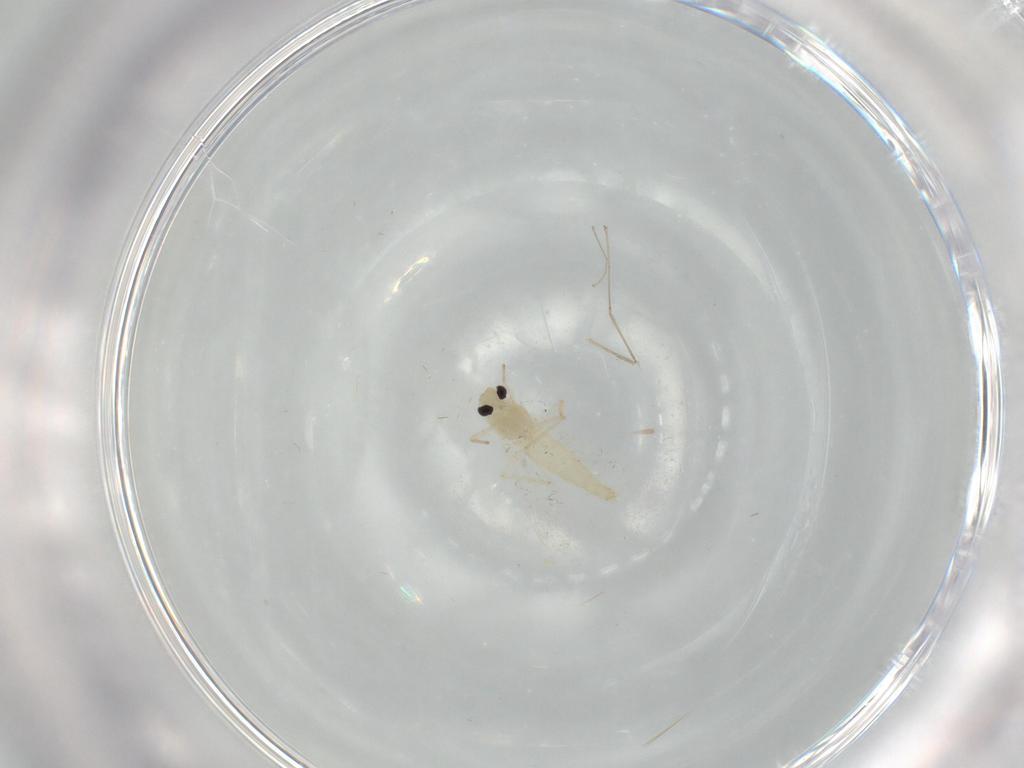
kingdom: Animalia
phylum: Arthropoda
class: Insecta
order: Diptera
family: Chironomidae
